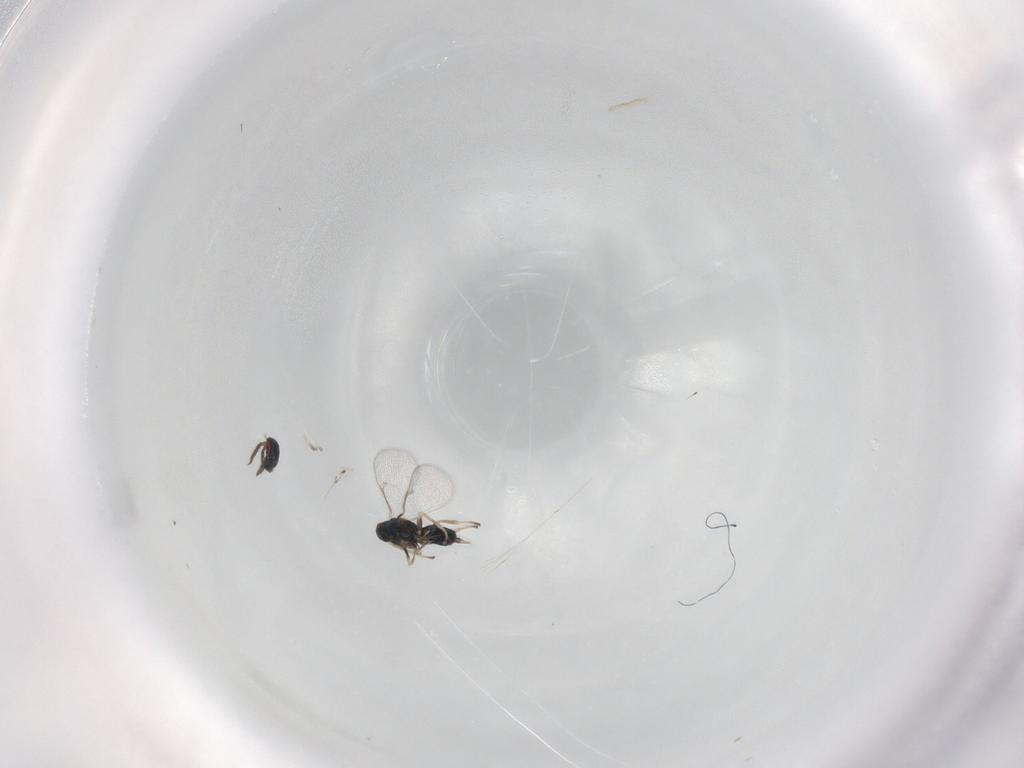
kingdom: Animalia
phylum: Arthropoda
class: Insecta
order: Hymenoptera
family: Eulophidae
